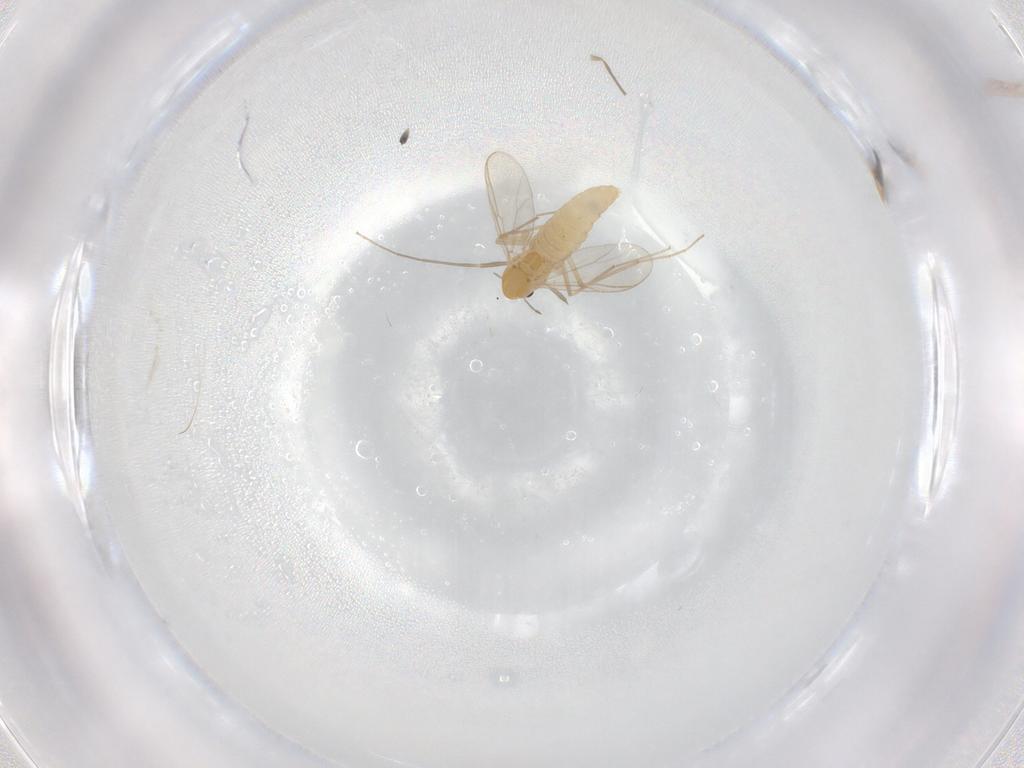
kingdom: Animalia
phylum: Arthropoda
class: Insecta
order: Diptera
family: Chironomidae
